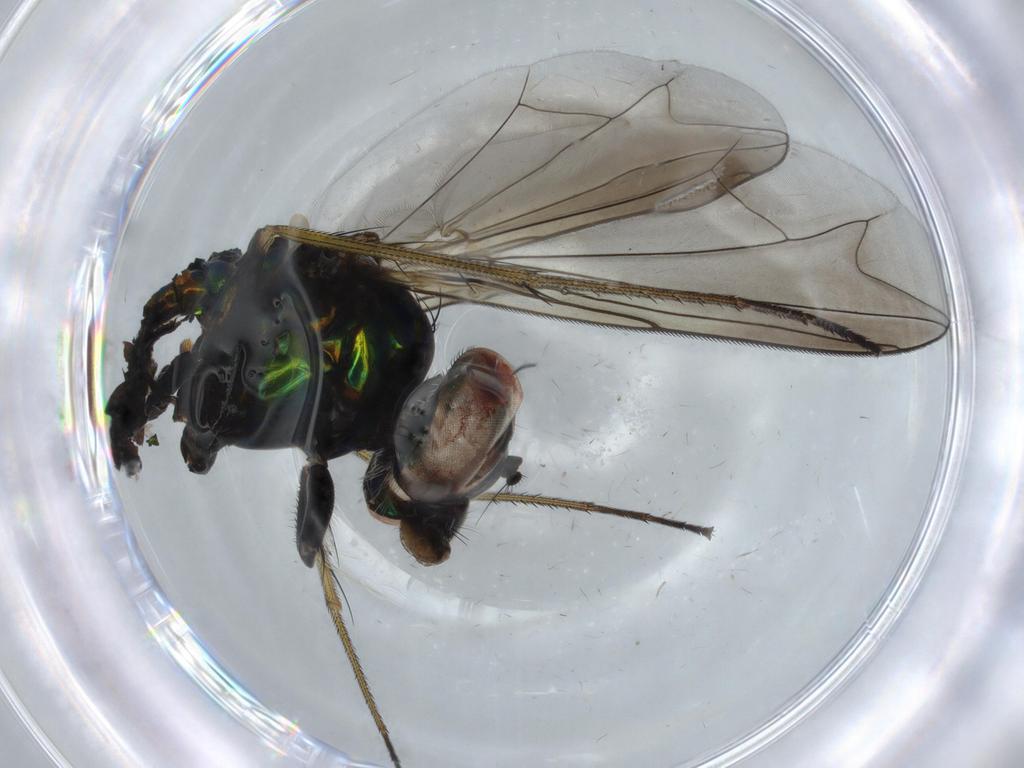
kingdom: Animalia
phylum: Arthropoda
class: Insecta
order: Diptera
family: Dolichopodidae
